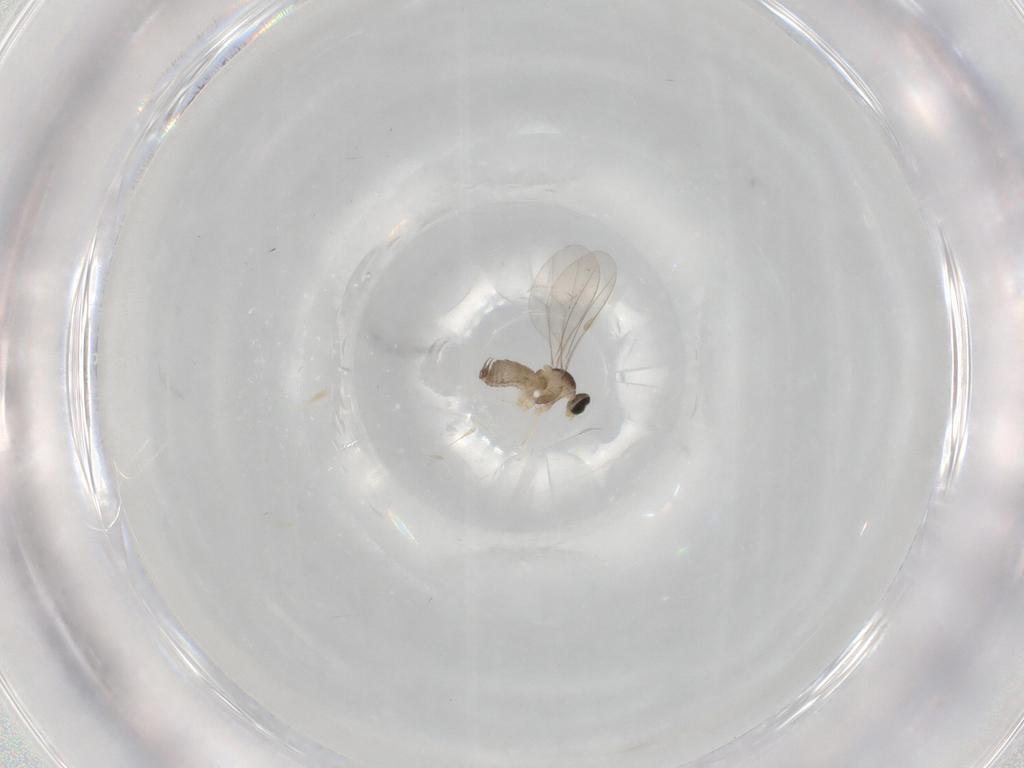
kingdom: Animalia
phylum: Arthropoda
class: Insecta
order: Diptera
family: Cecidomyiidae
